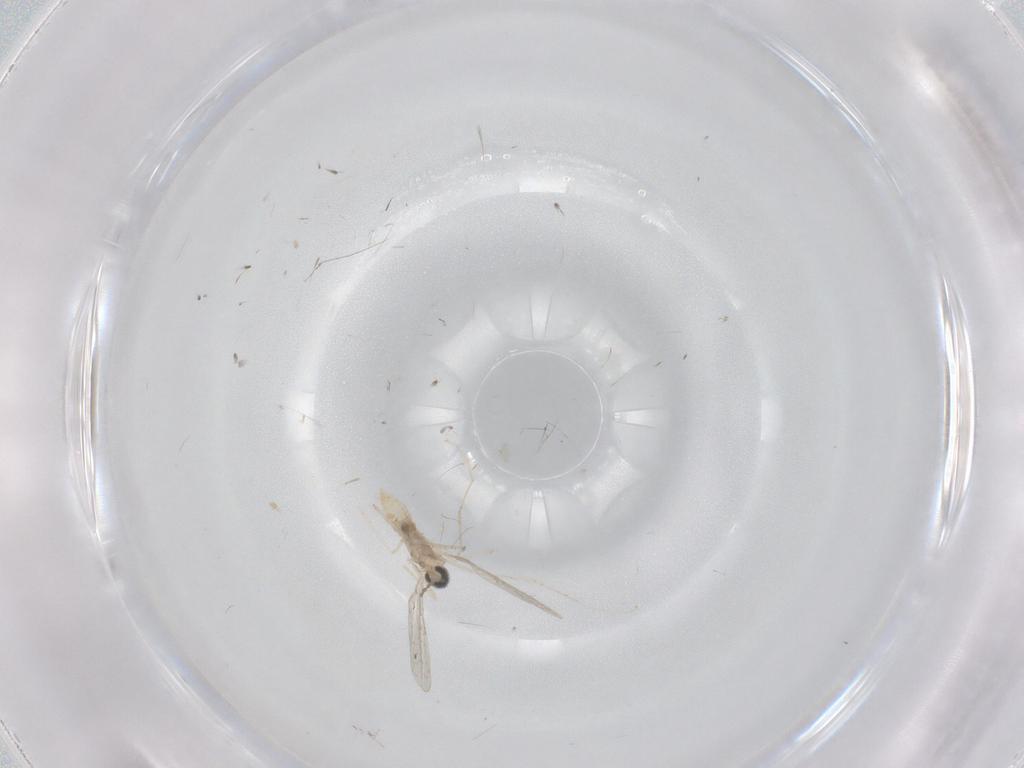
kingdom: Animalia
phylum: Arthropoda
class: Insecta
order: Diptera
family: Cecidomyiidae
